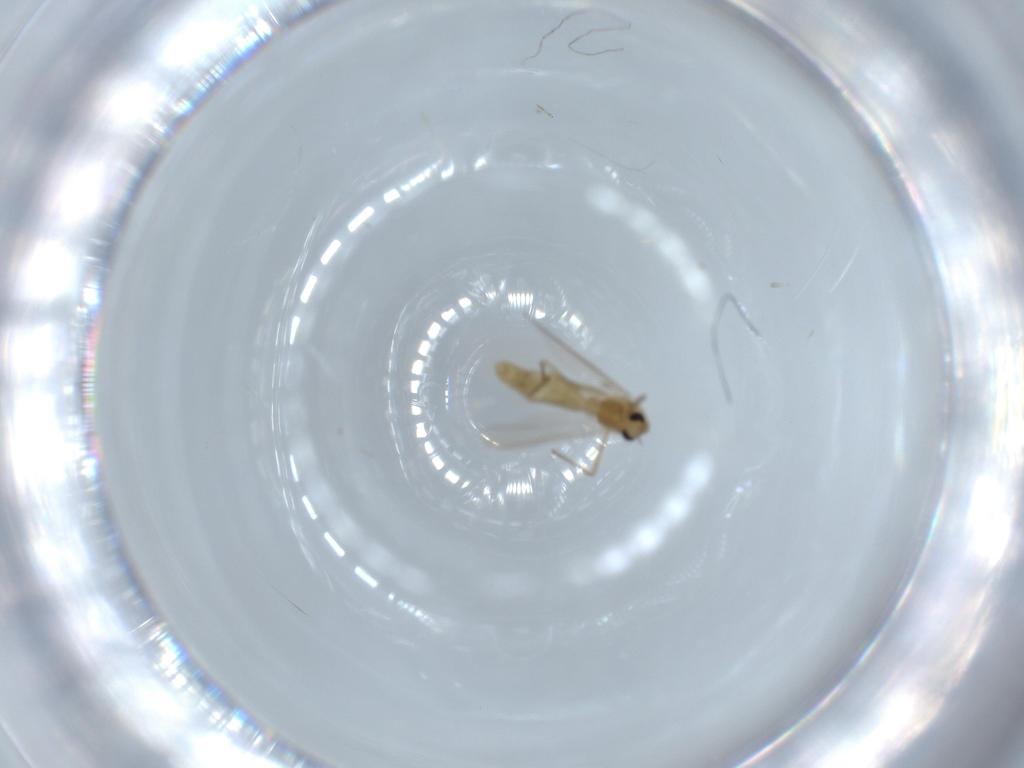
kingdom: Animalia
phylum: Arthropoda
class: Insecta
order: Diptera
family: Chironomidae
